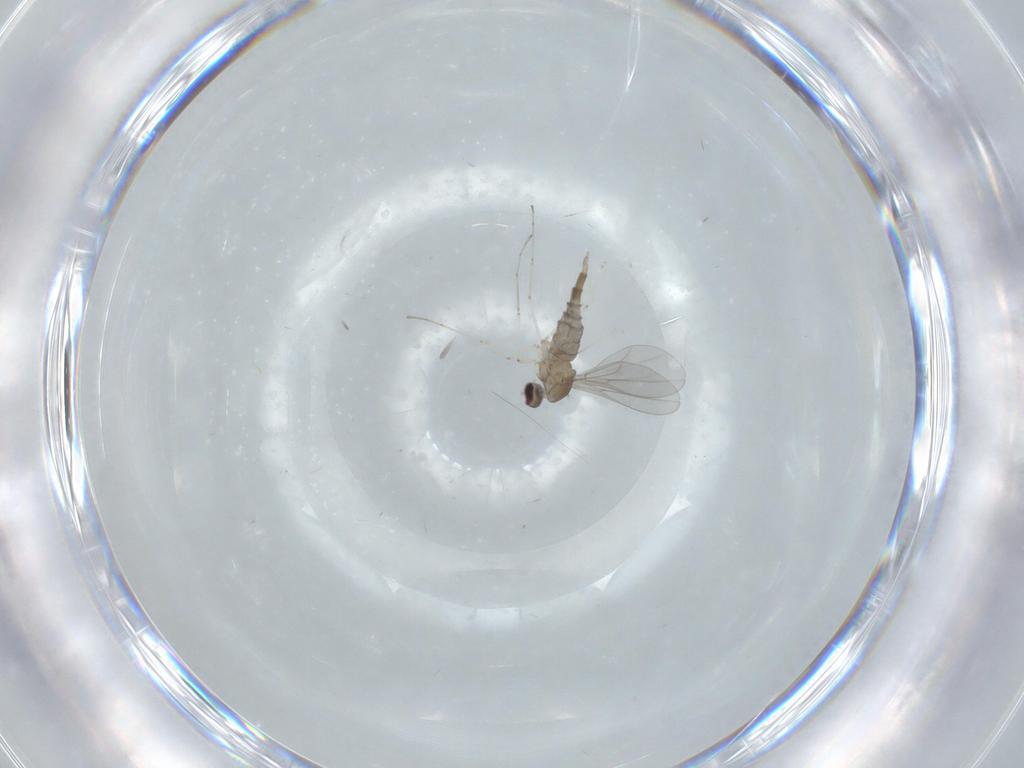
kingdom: Animalia
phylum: Arthropoda
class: Insecta
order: Diptera
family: Cecidomyiidae
